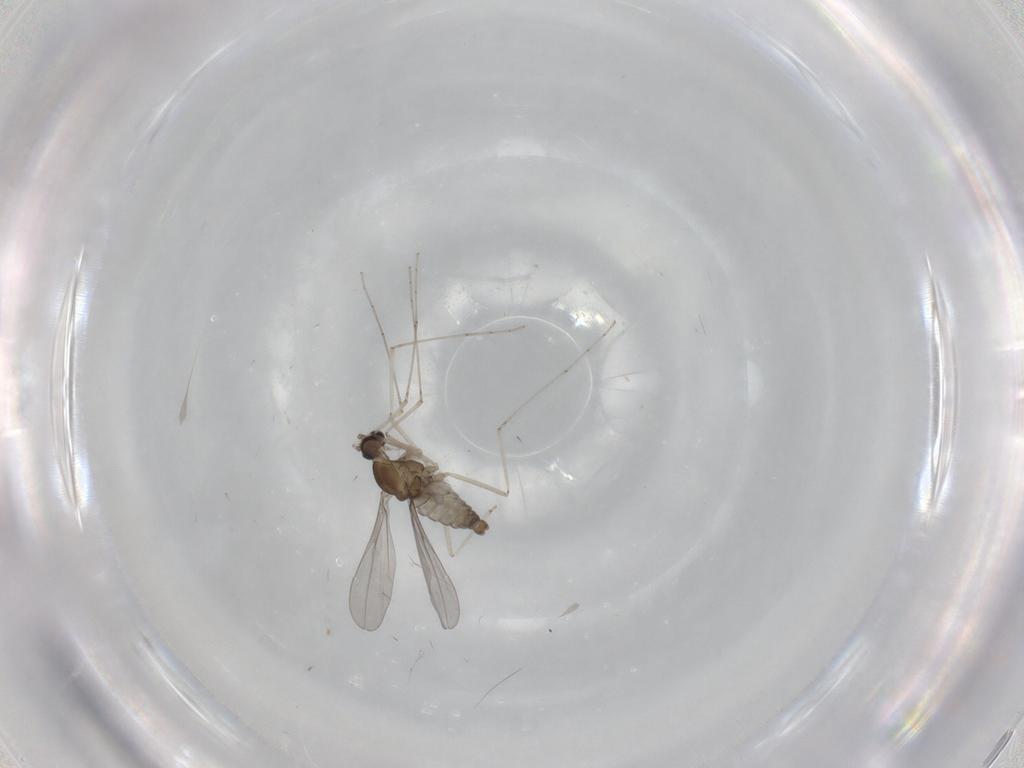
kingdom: Animalia
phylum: Arthropoda
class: Insecta
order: Diptera
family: Cecidomyiidae
